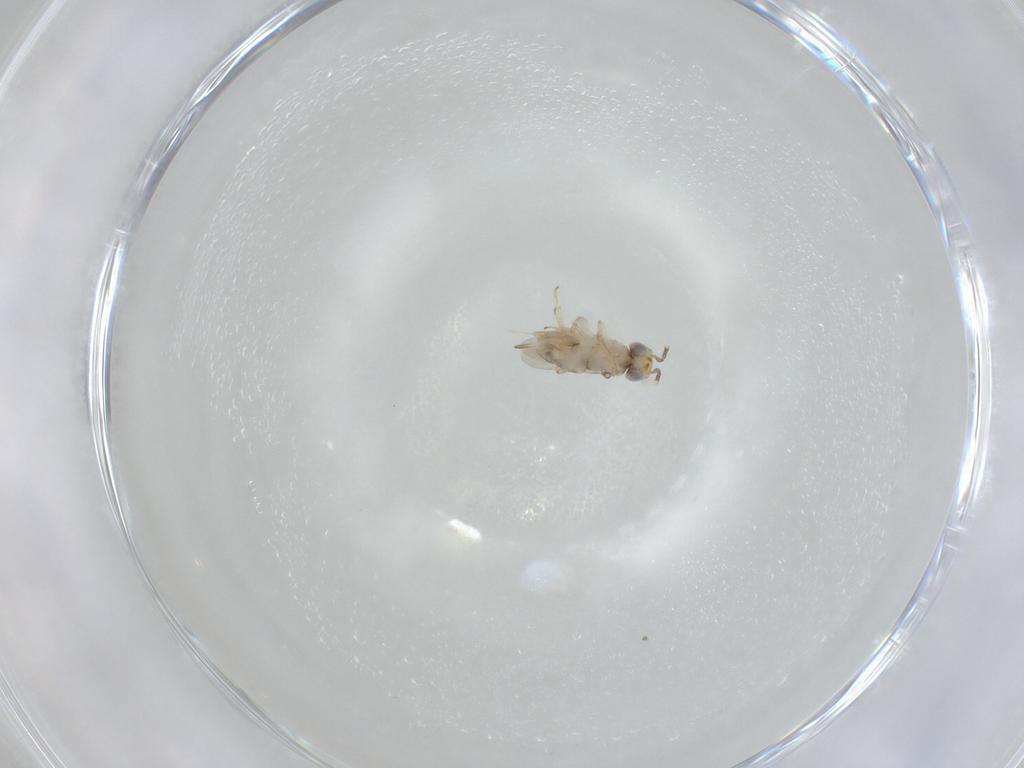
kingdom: Animalia
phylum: Arthropoda
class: Insecta
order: Hymenoptera
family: Encyrtidae
